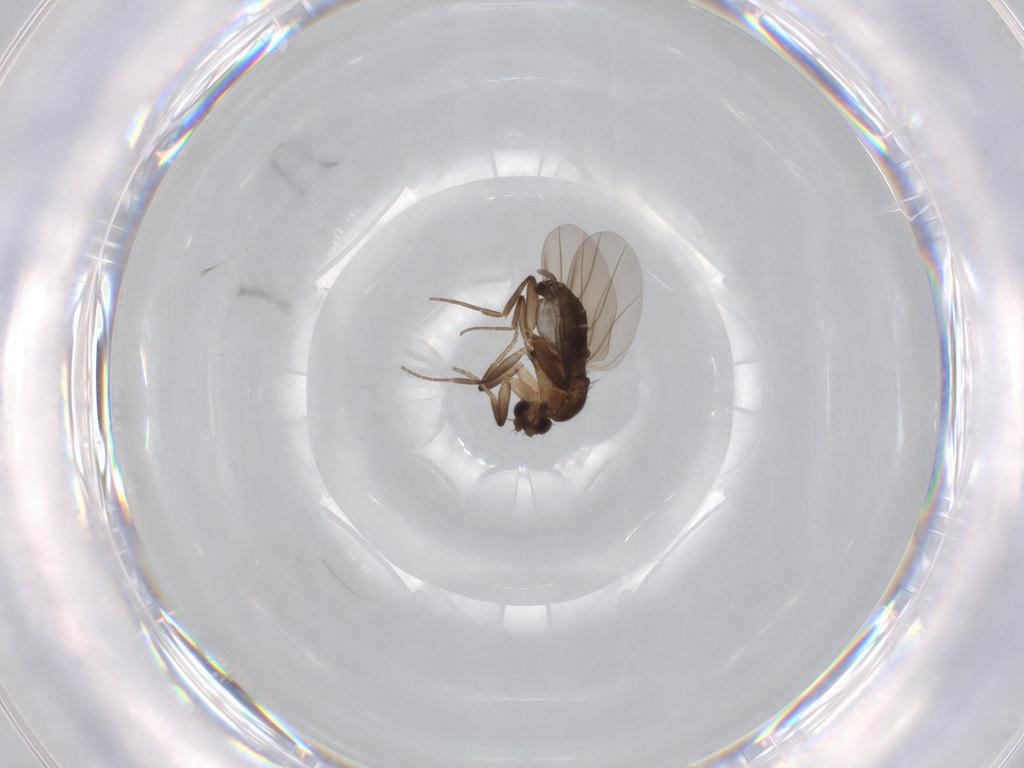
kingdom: Animalia
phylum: Arthropoda
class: Insecta
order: Diptera
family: Phoridae
